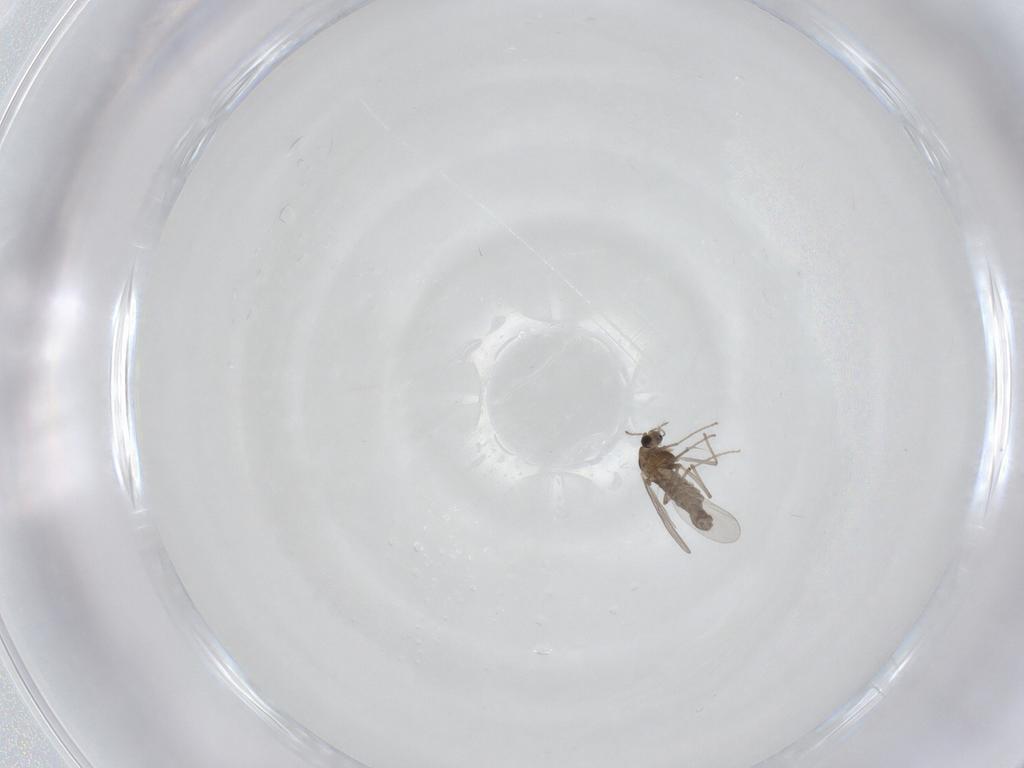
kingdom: Animalia
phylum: Arthropoda
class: Insecta
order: Diptera
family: Chironomidae
